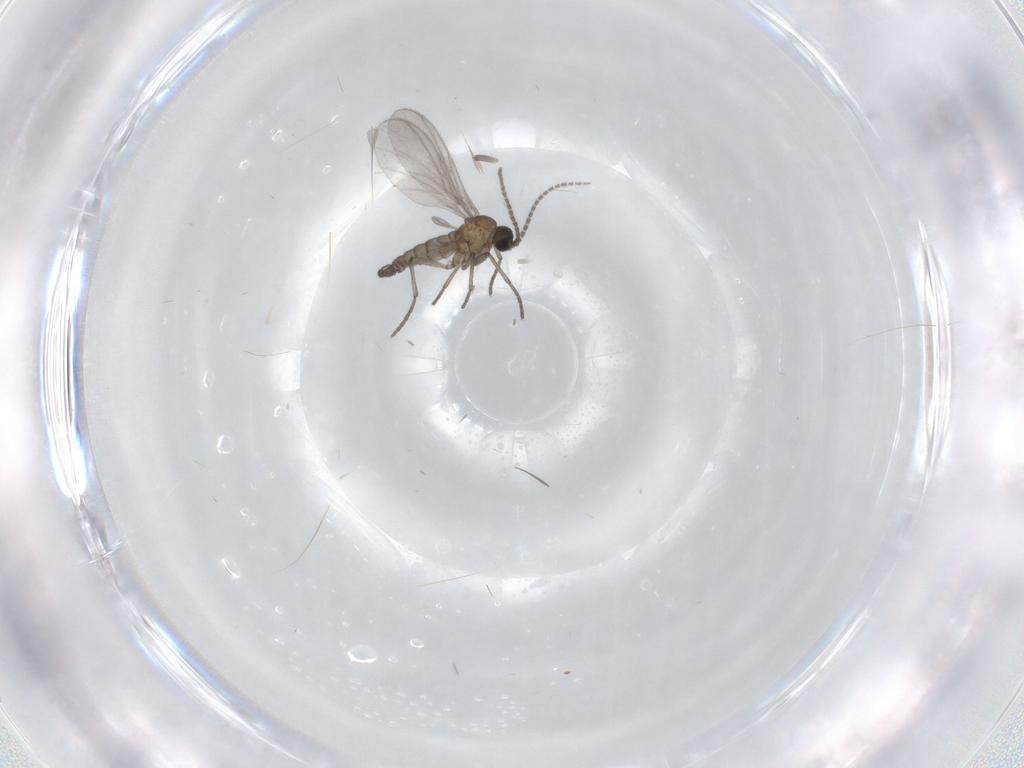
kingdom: Animalia
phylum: Arthropoda
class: Insecta
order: Diptera
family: Sciaridae
